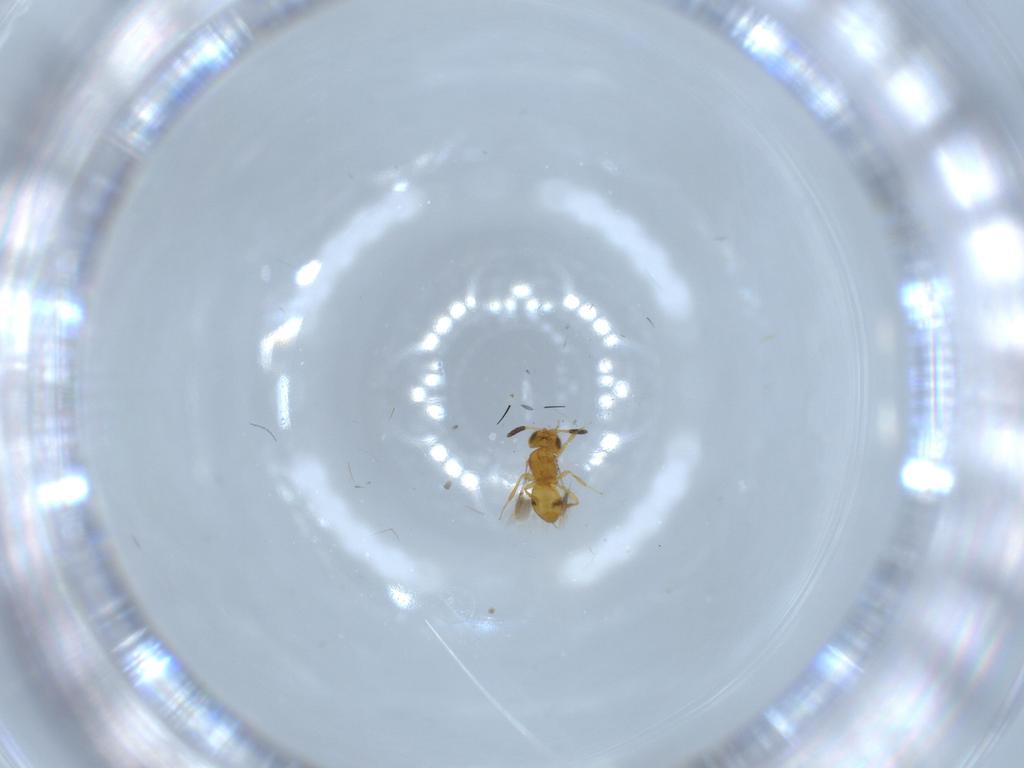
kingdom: Animalia
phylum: Arthropoda
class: Insecta
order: Hymenoptera
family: Scelionidae
